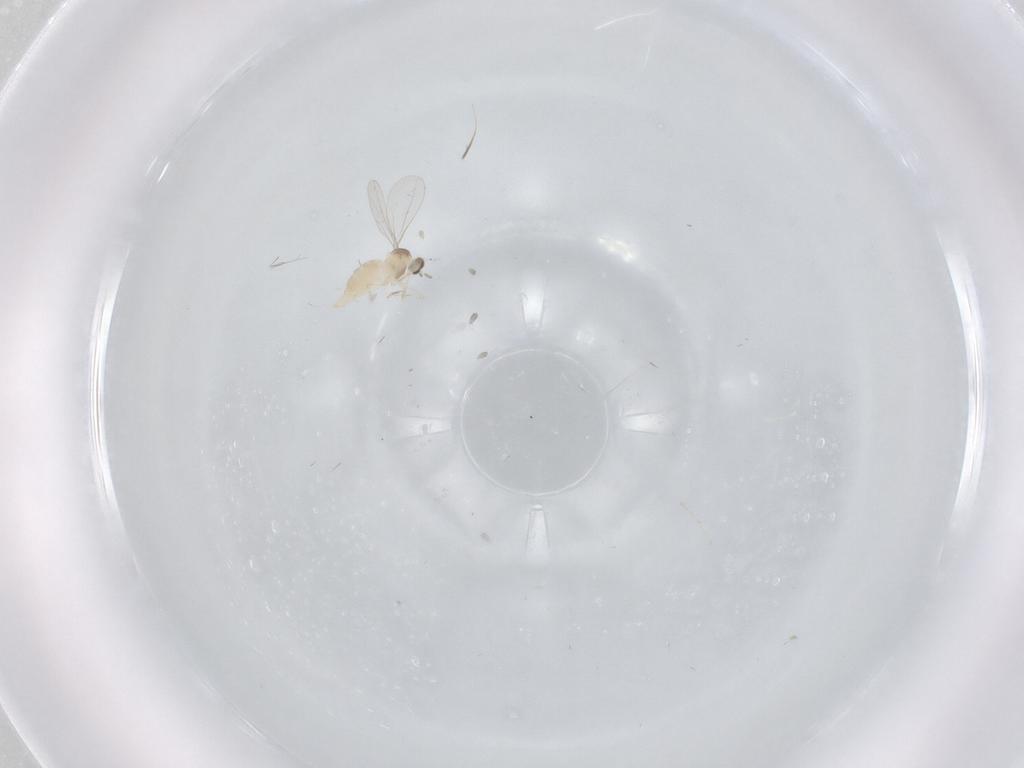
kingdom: Animalia
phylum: Arthropoda
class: Insecta
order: Diptera
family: Cecidomyiidae
